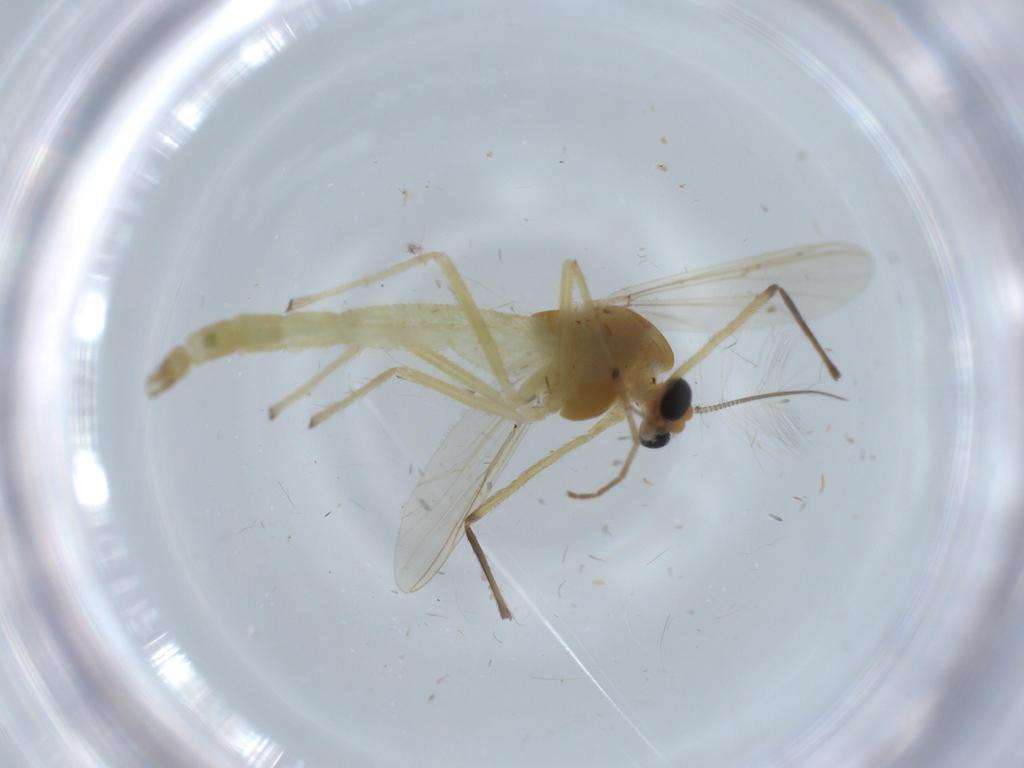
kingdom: Animalia
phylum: Arthropoda
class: Insecta
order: Diptera
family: Chironomidae
